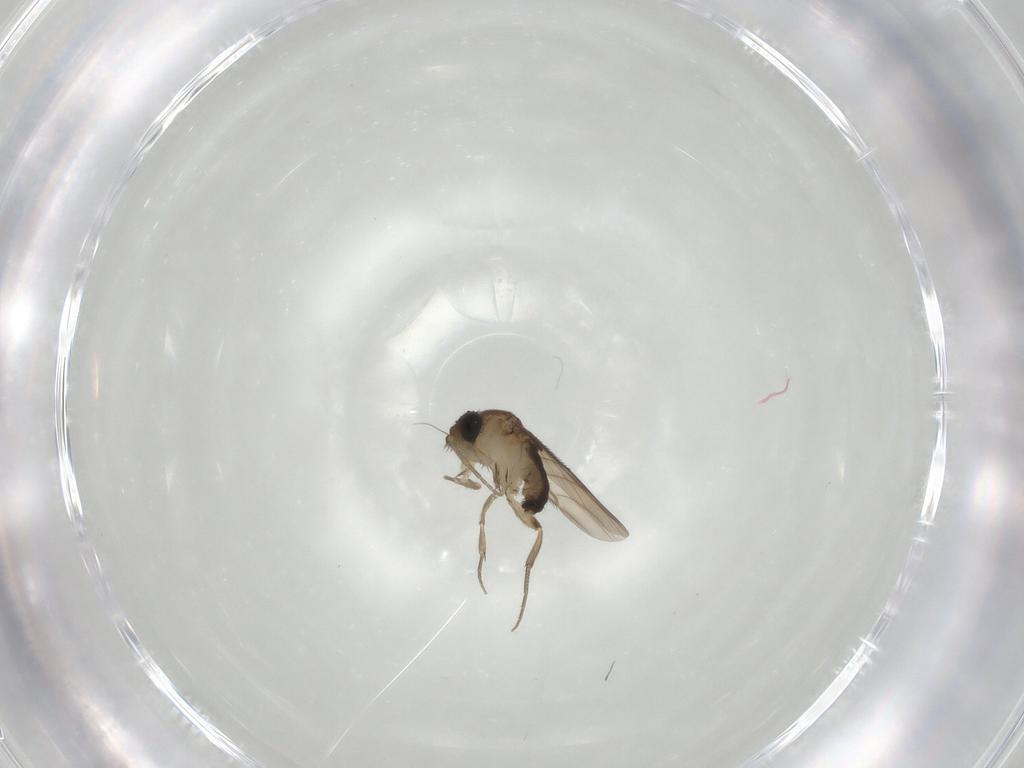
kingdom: Animalia
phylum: Arthropoda
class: Insecta
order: Diptera
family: Phoridae
